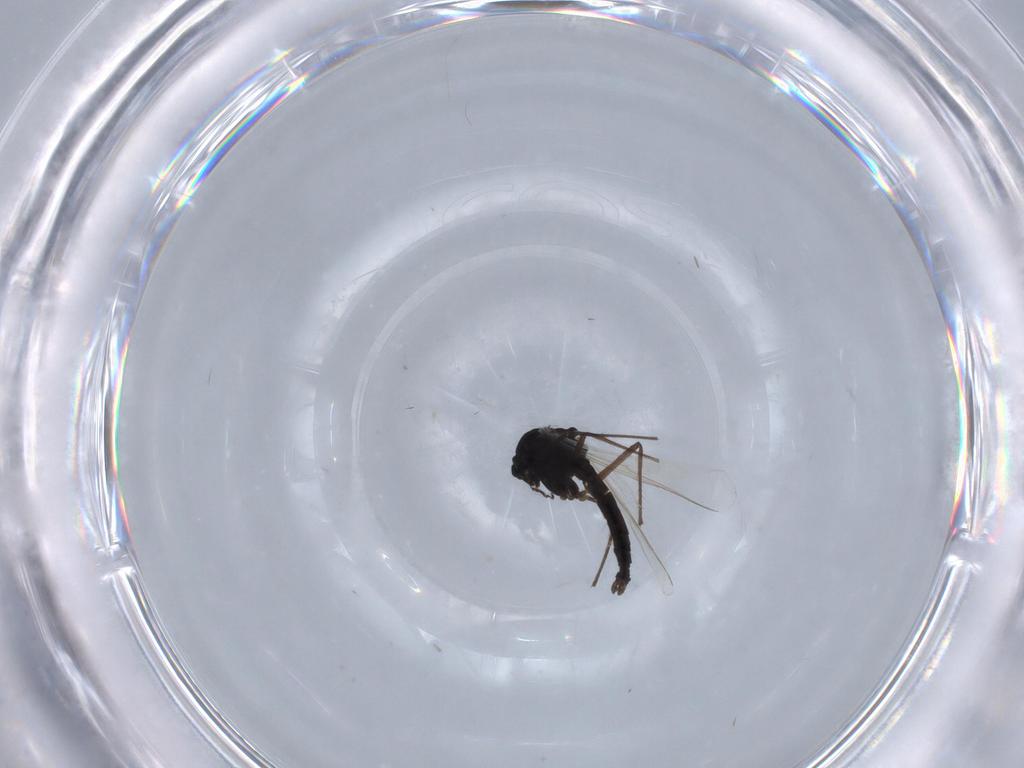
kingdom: Animalia
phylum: Arthropoda
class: Insecta
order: Diptera
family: Chironomidae
